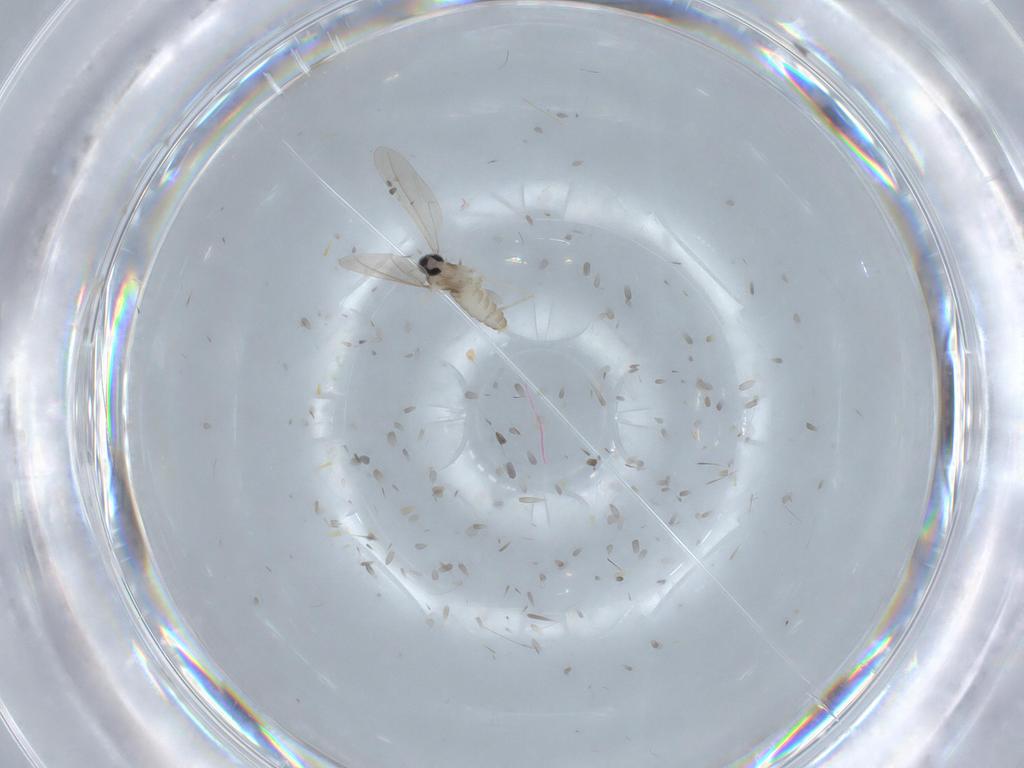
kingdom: Animalia
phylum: Arthropoda
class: Insecta
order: Diptera
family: Cecidomyiidae
